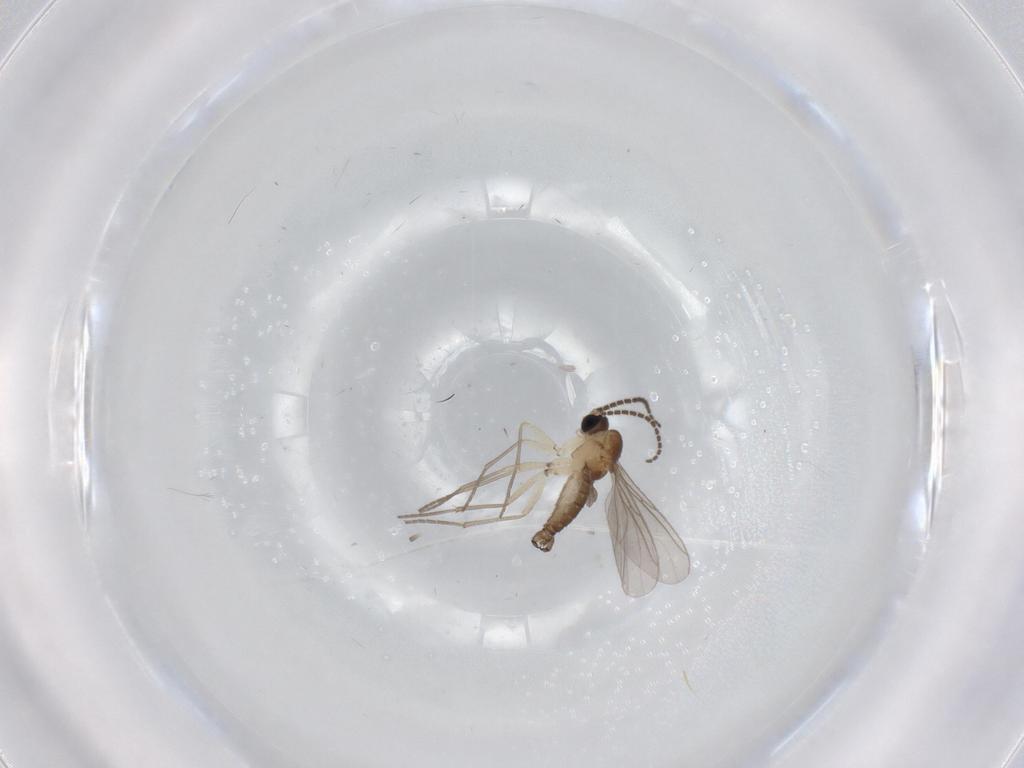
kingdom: Animalia
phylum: Arthropoda
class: Insecta
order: Diptera
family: Sciaridae
